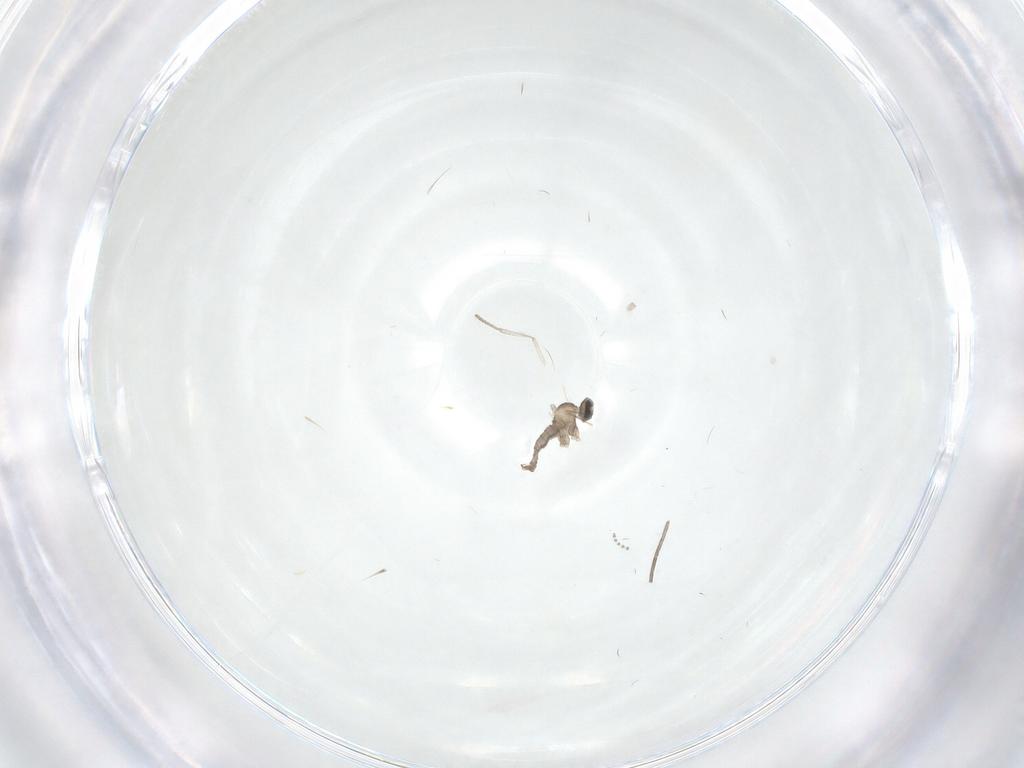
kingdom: Animalia
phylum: Arthropoda
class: Insecta
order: Diptera
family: Cecidomyiidae
